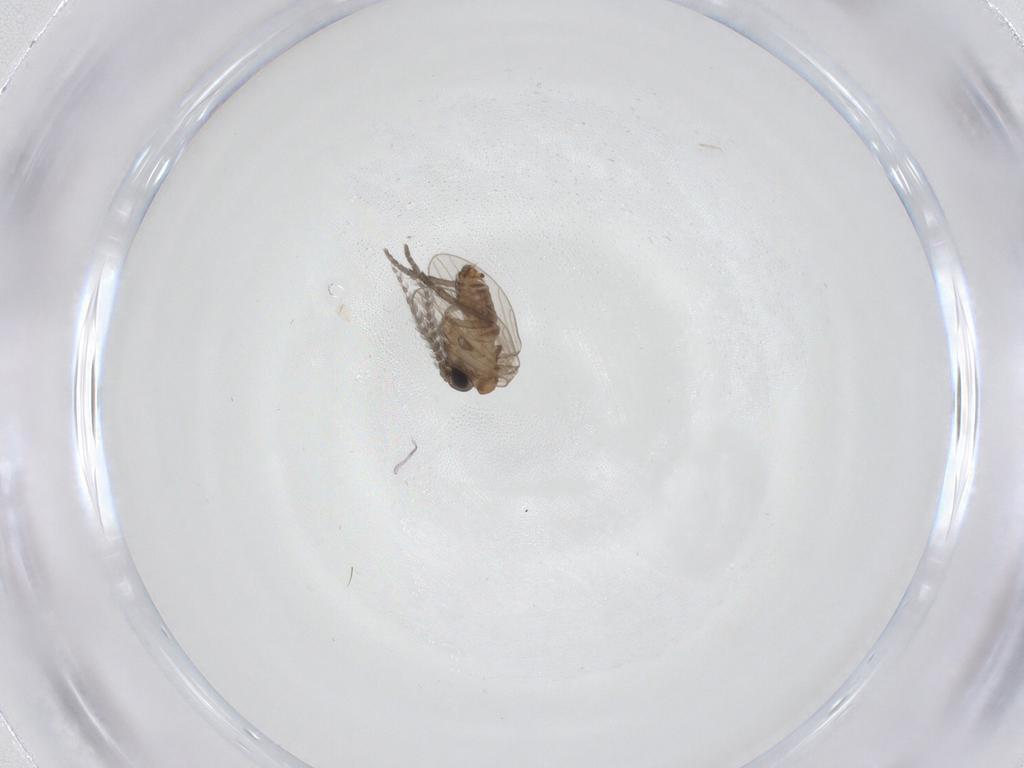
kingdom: Animalia
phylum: Arthropoda
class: Insecta
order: Diptera
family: Psychodidae
